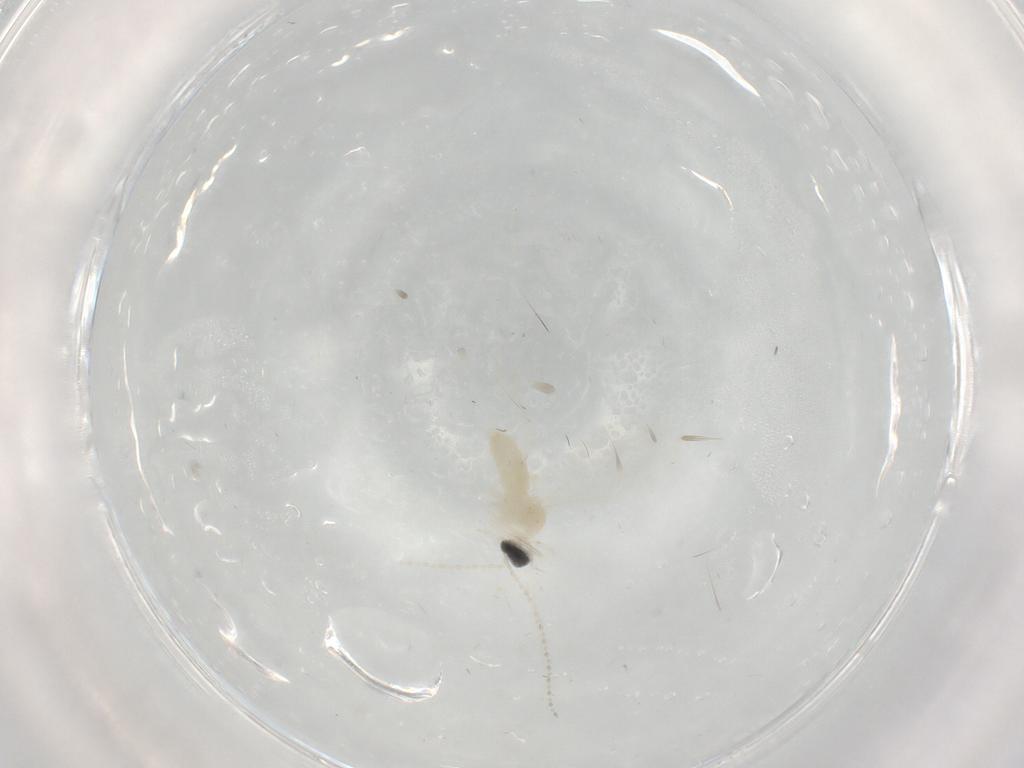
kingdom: Animalia
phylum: Arthropoda
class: Insecta
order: Diptera
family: Cecidomyiidae
